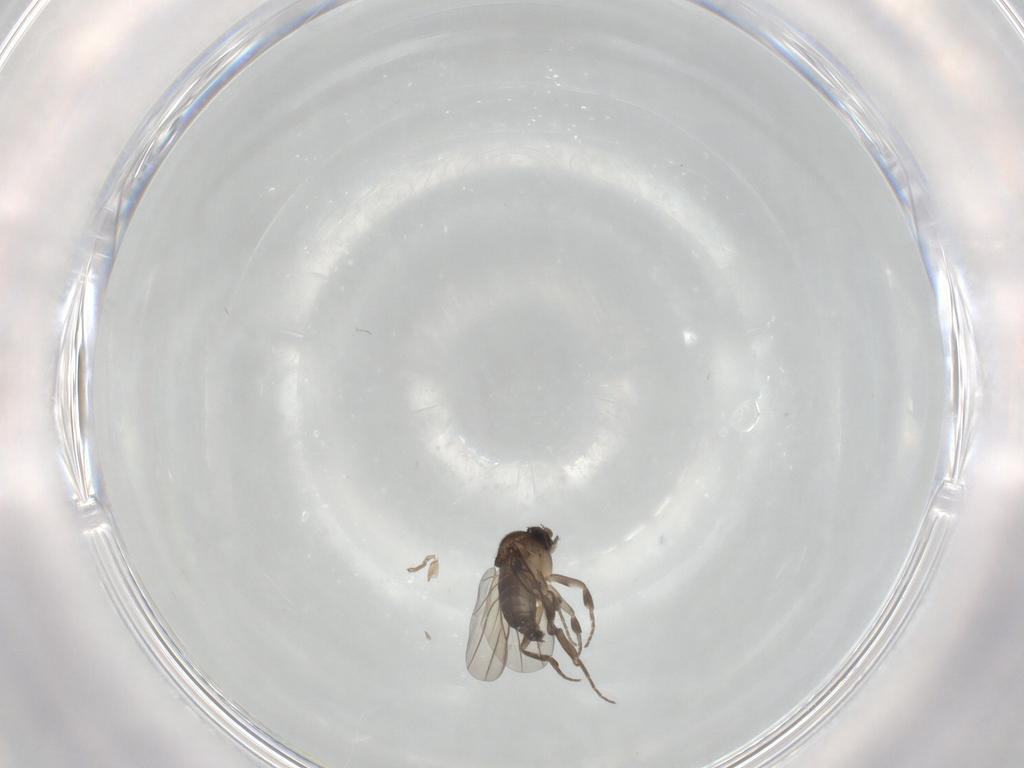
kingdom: Animalia
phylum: Arthropoda
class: Insecta
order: Diptera
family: Phoridae
